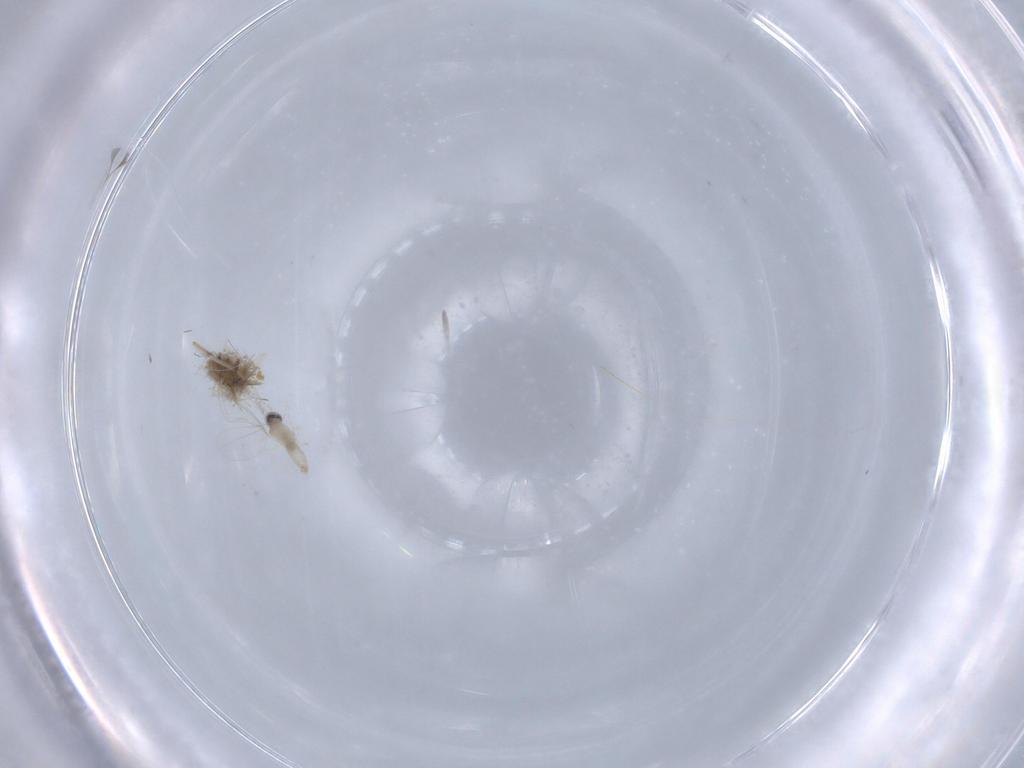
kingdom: Animalia
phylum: Arthropoda
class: Insecta
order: Diptera
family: Cecidomyiidae
